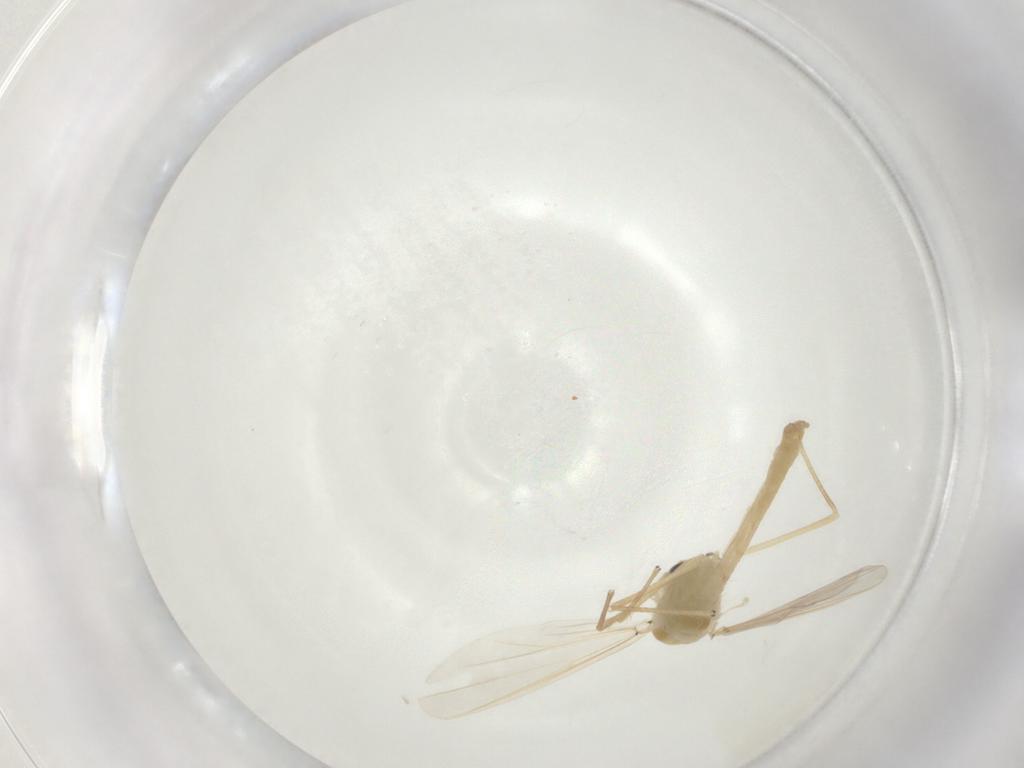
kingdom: Animalia
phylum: Arthropoda
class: Insecta
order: Diptera
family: Chironomidae
